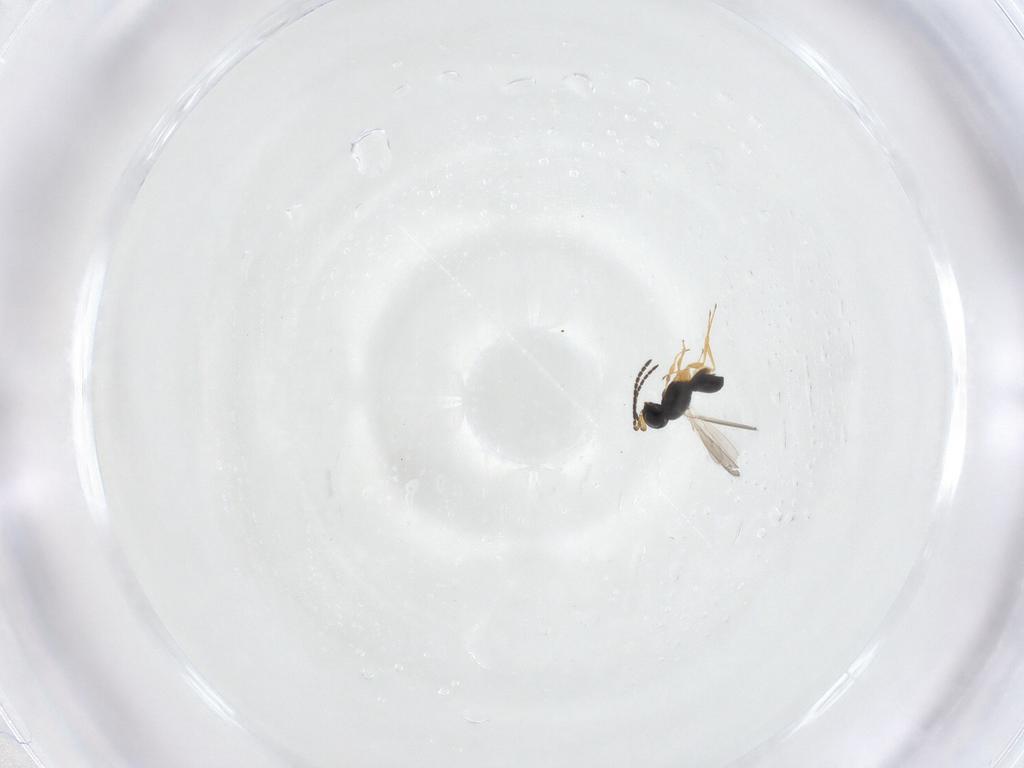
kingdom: Animalia
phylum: Arthropoda
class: Insecta
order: Hymenoptera
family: Scelionidae
